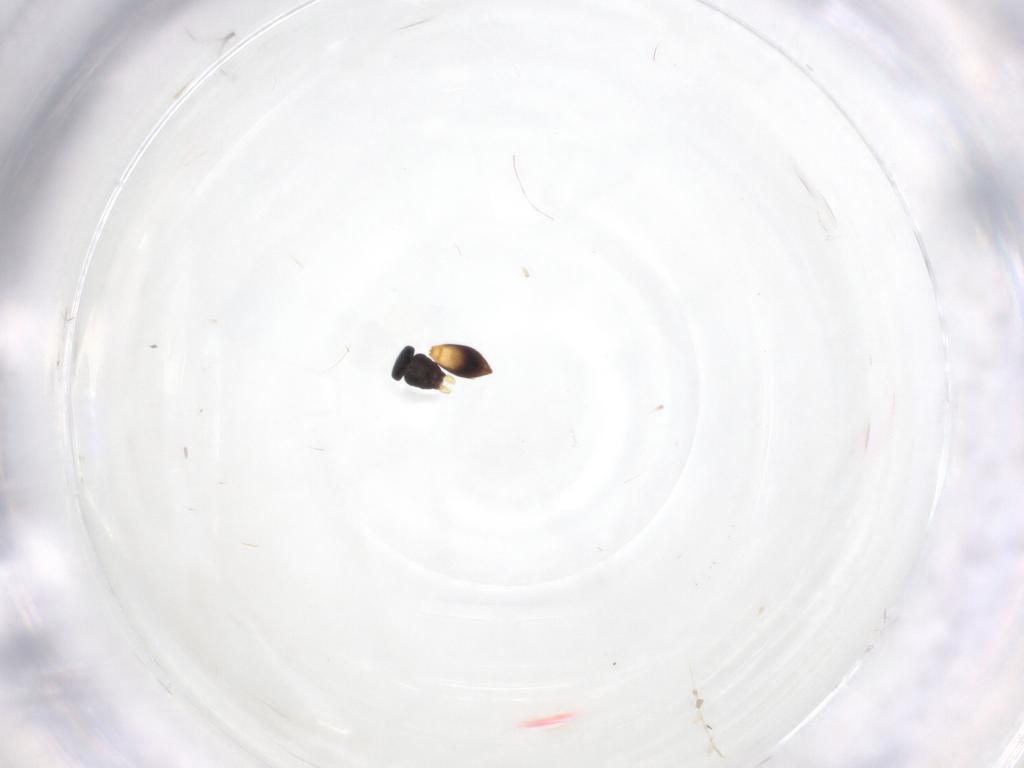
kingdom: Animalia
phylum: Arthropoda
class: Insecta
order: Hymenoptera
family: Scelionidae
